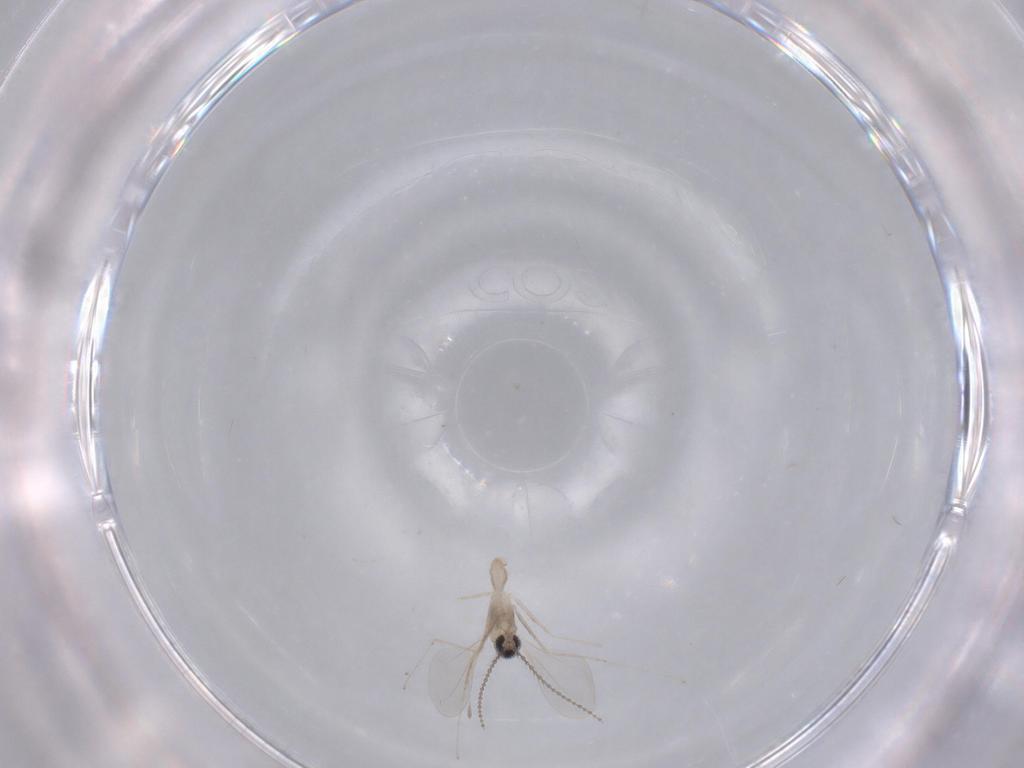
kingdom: Animalia
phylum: Arthropoda
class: Insecta
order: Diptera
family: Cecidomyiidae
